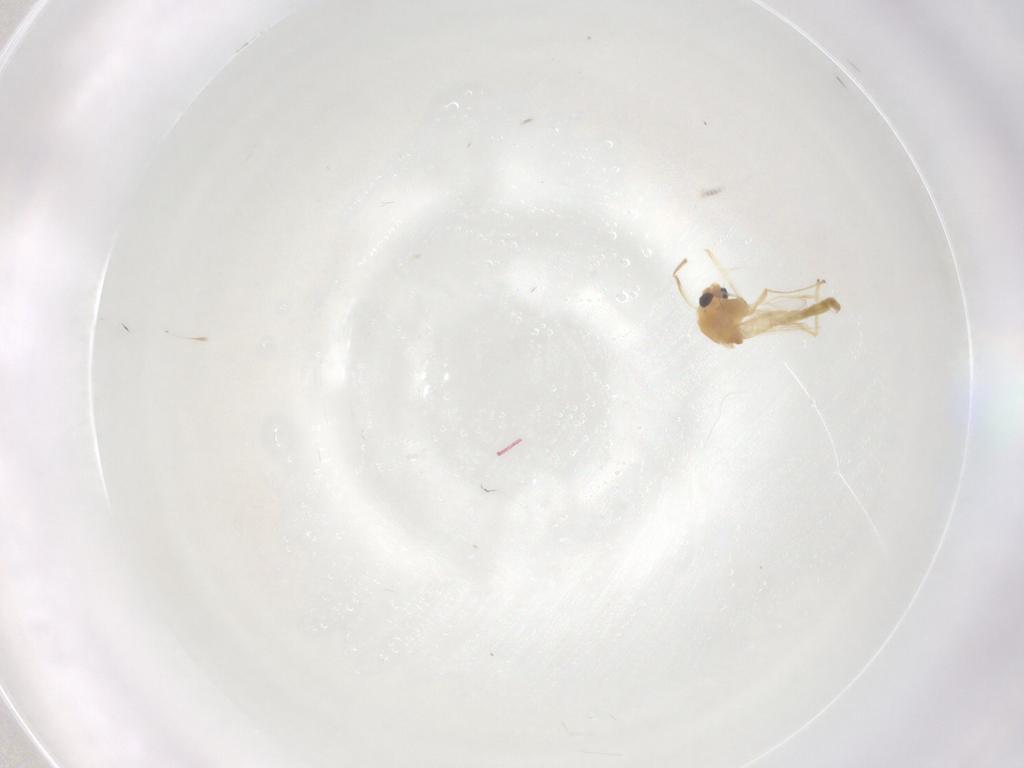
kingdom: Animalia
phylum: Arthropoda
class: Insecta
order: Diptera
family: Chironomidae
